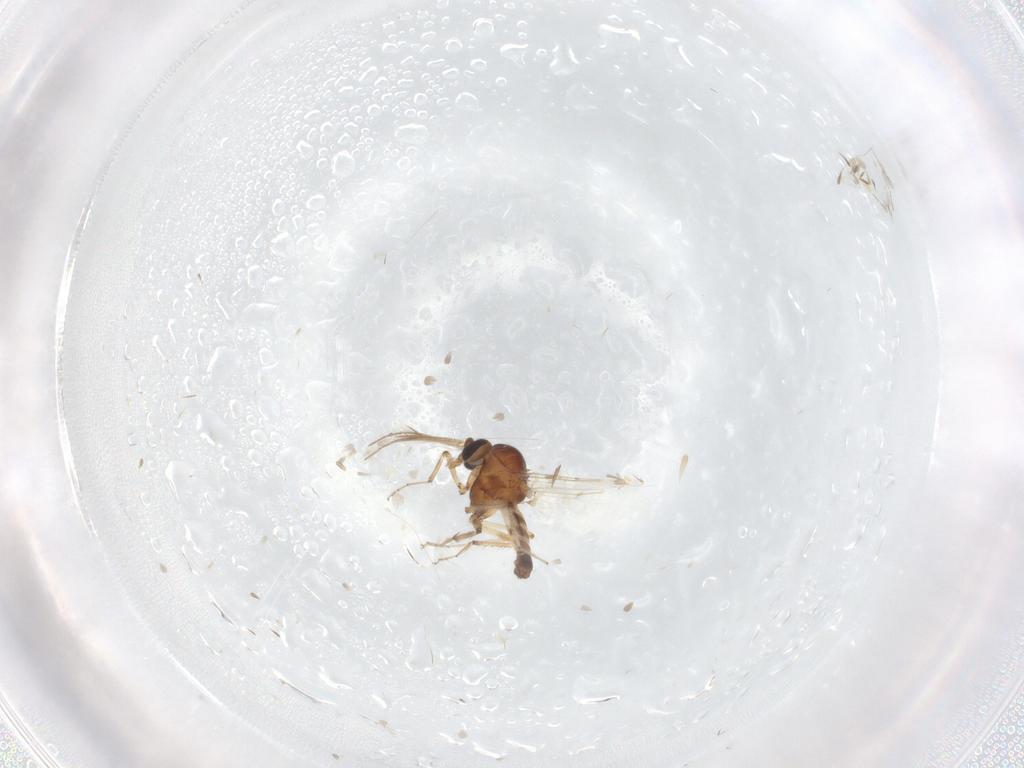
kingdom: Animalia
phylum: Arthropoda
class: Insecta
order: Diptera
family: Ceratopogonidae
